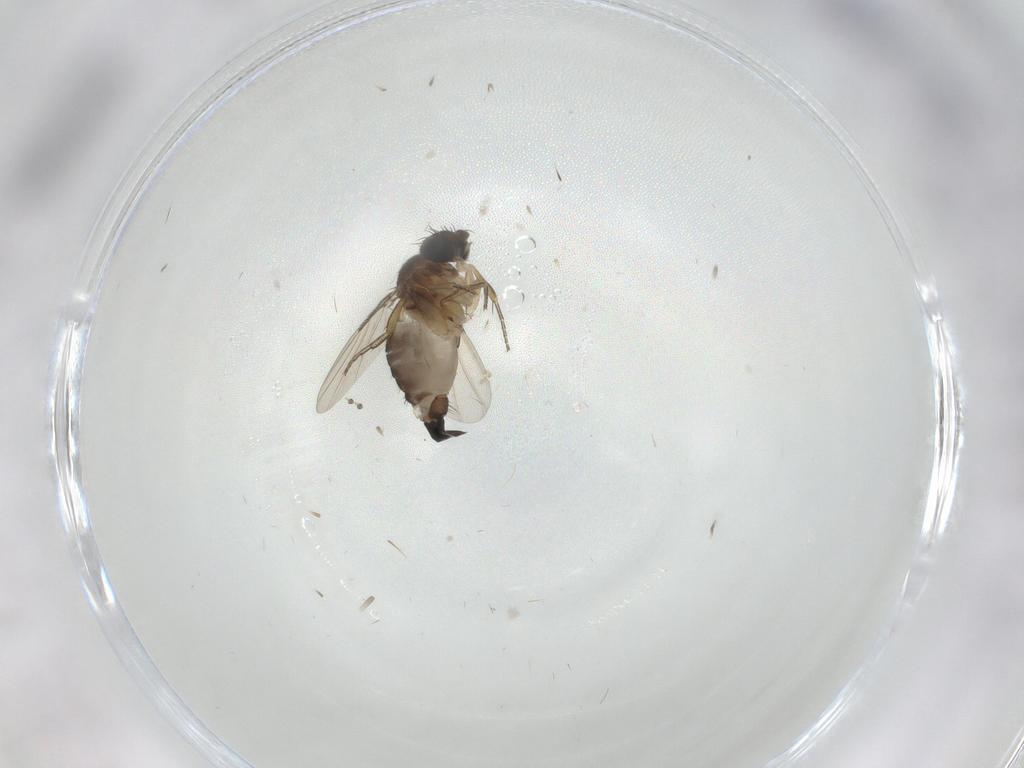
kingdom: Animalia
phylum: Arthropoda
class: Insecta
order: Diptera
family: Phoridae
